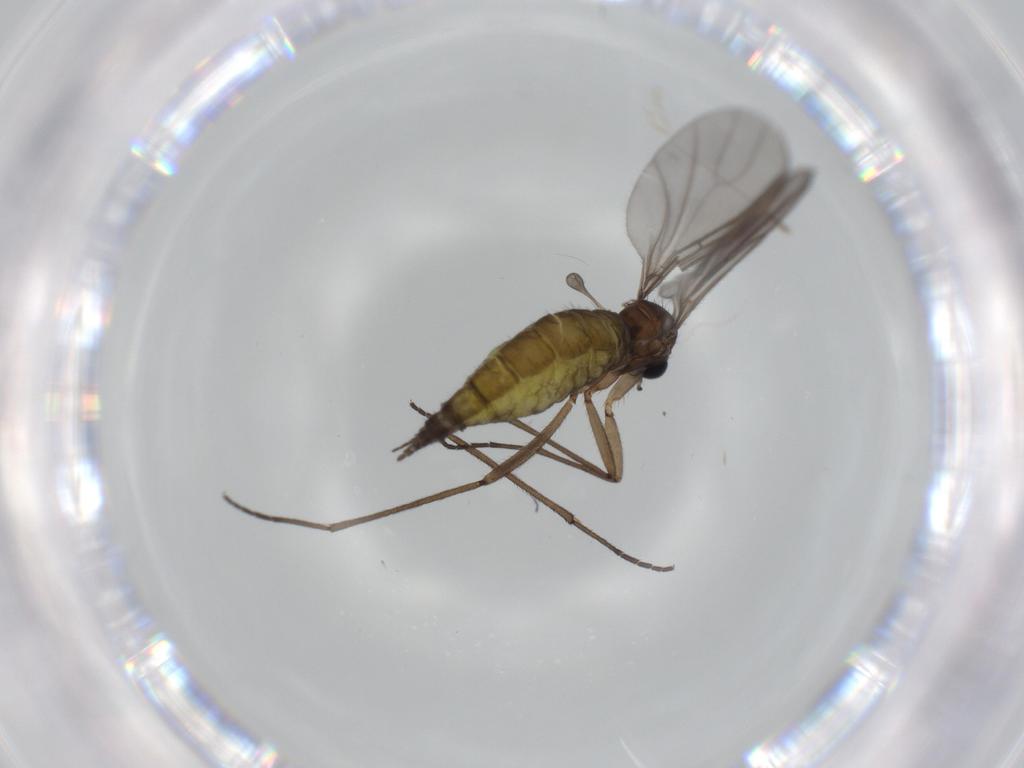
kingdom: Animalia
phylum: Arthropoda
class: Insecta
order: Diptera
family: Sciaridae
